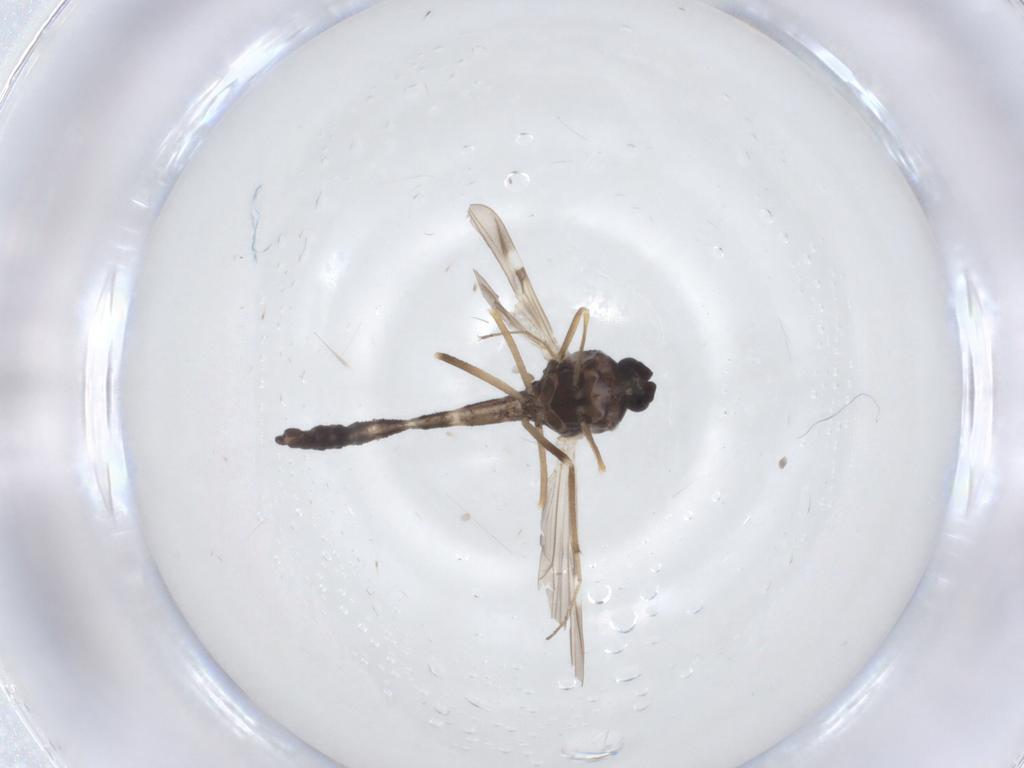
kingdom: Animalia
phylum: Arthropoda
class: Insecta
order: Diptera
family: Ceratopogonidae
